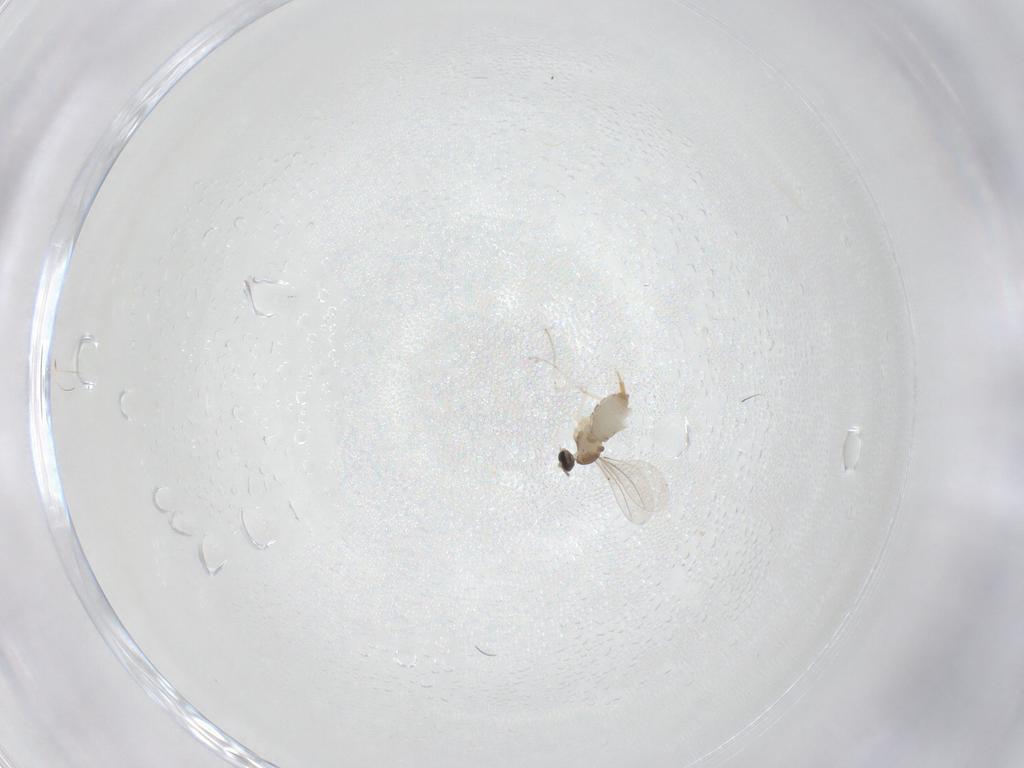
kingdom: Animalia
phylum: Arthropoda
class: Insecta
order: Diptera
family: Cecidomyiidae
